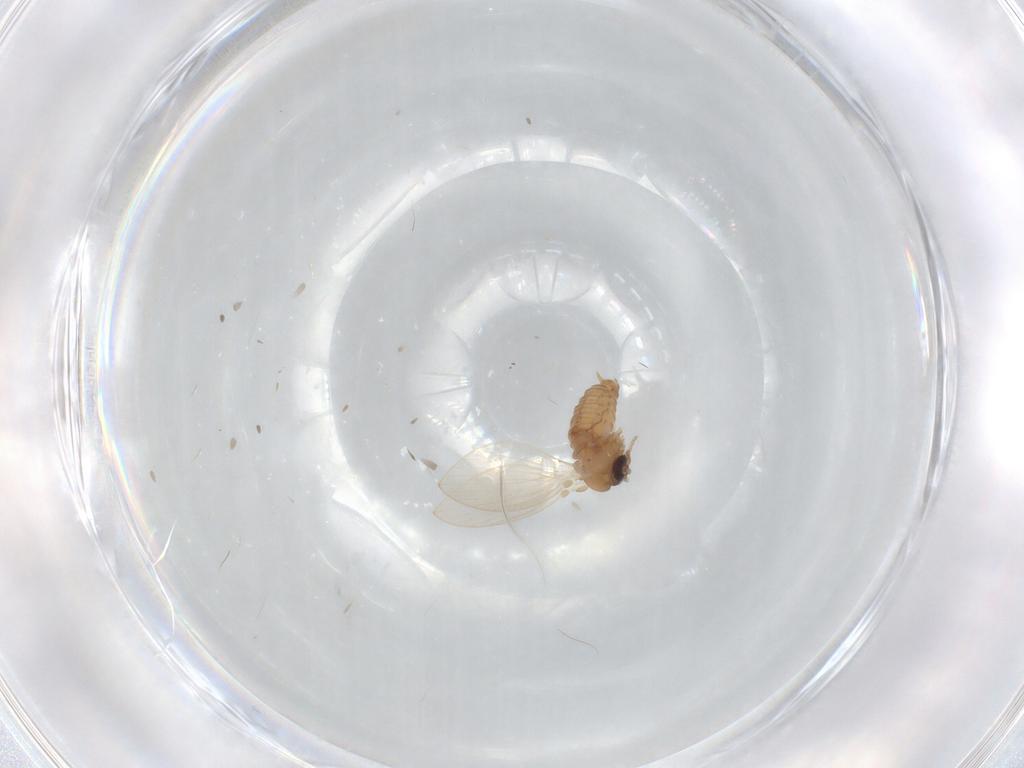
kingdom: Animalia
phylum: Arthropoda
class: Insecta
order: Diptera
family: Psychodidae
